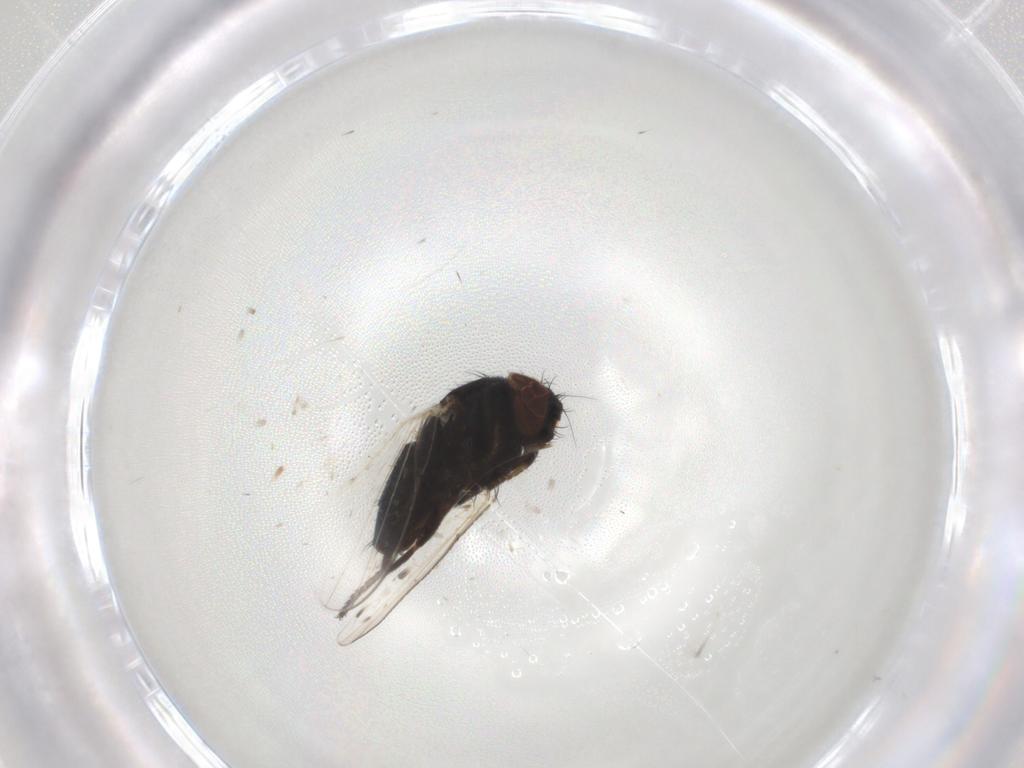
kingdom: Animalia
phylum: Arthropoda
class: Insecta
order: Diptera
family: Milichiidae
